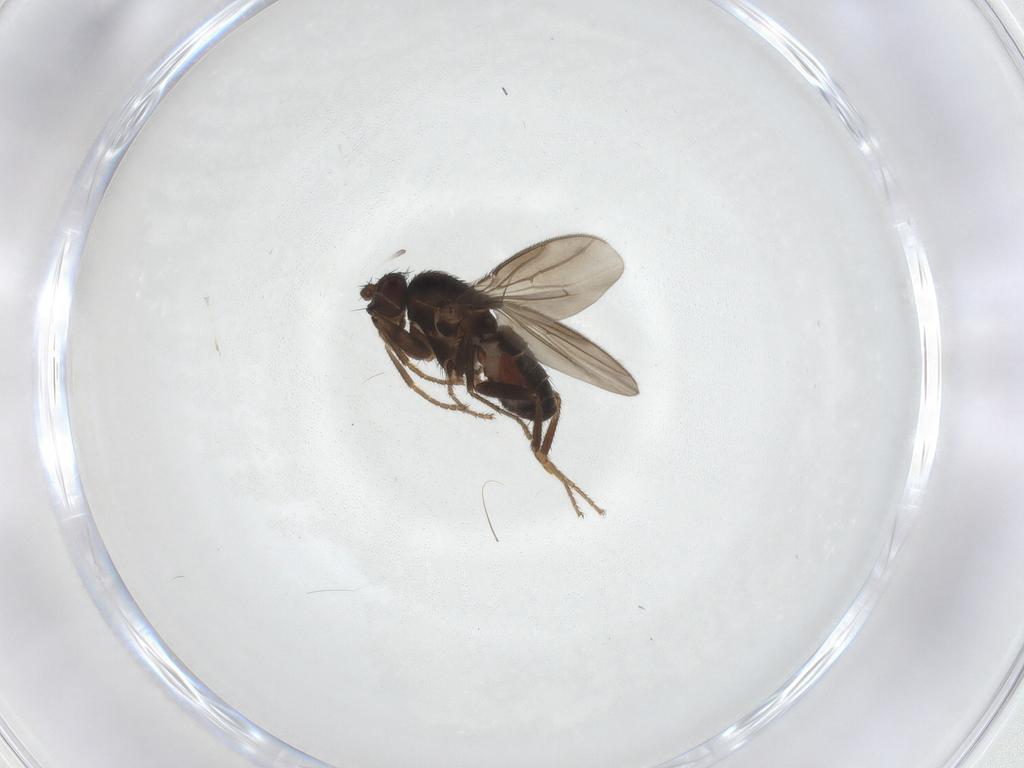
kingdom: Animalia
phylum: Arthropoda
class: Insecta
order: Diptera
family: Sphaeroceridae
